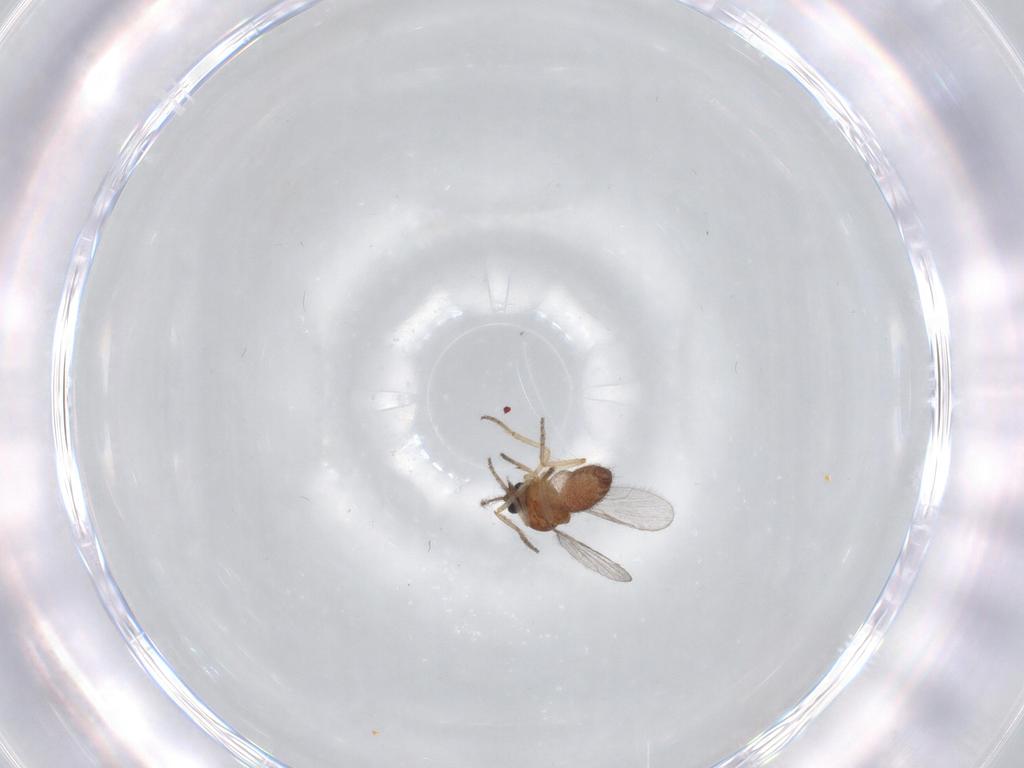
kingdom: Animalia
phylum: Arthropoda
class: Insecta
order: Diptera
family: Ceratopogonidae
